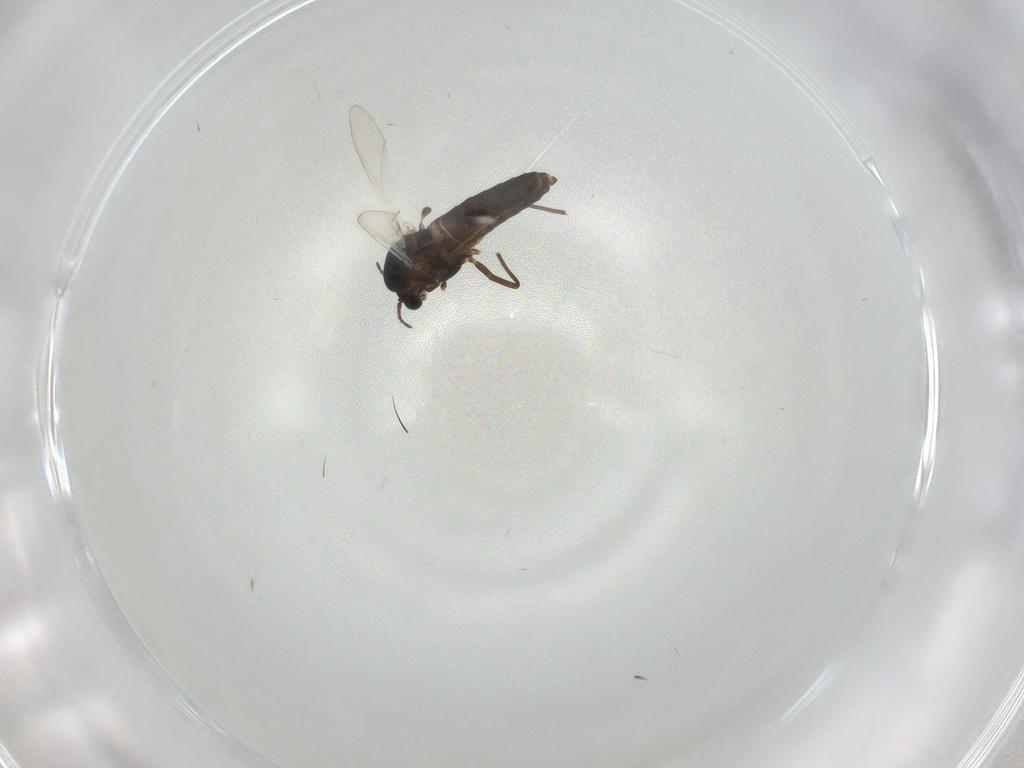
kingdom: Animalia
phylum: Arthropoda
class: Insecta
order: Diptera
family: Chironomidae
